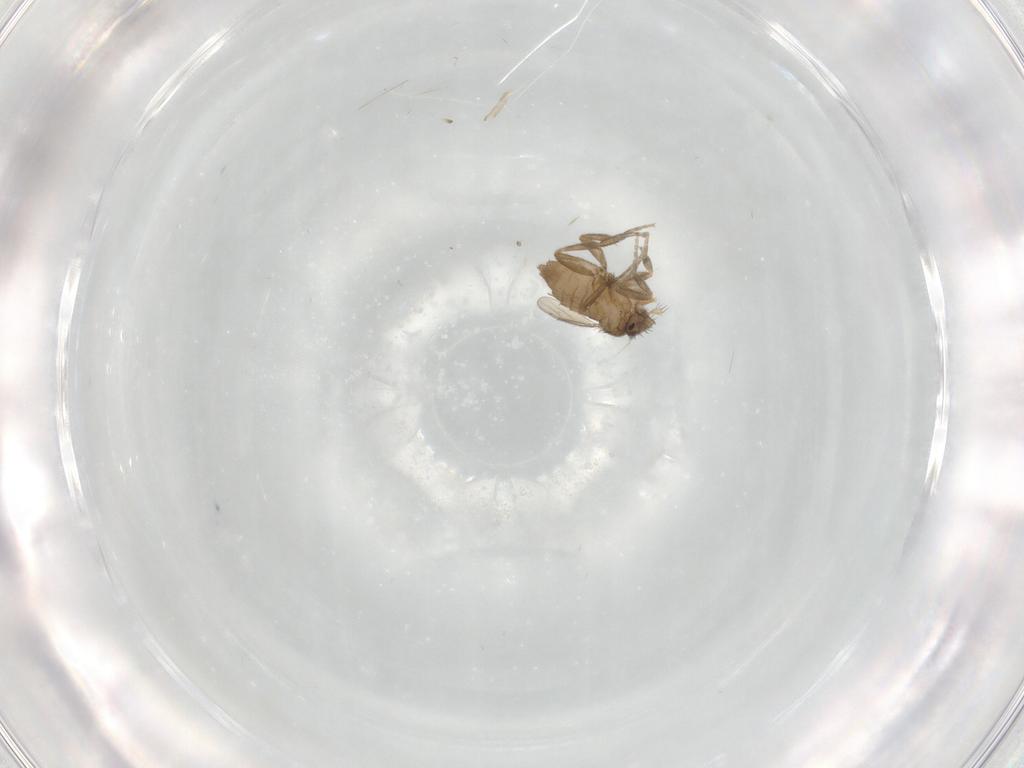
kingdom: Animalia
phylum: Arthropoda
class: Insecta
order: Diptera
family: Chironomidae
